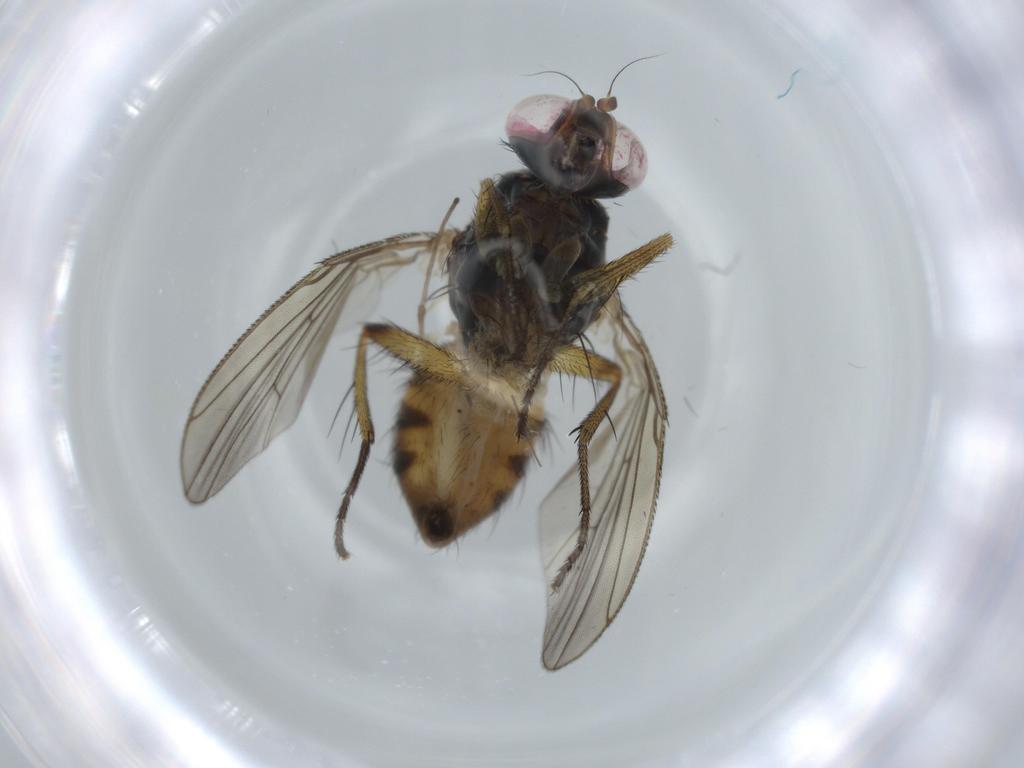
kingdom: Animalia
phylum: Arthropoda
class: Insecta
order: Diptera
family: Muscidae
